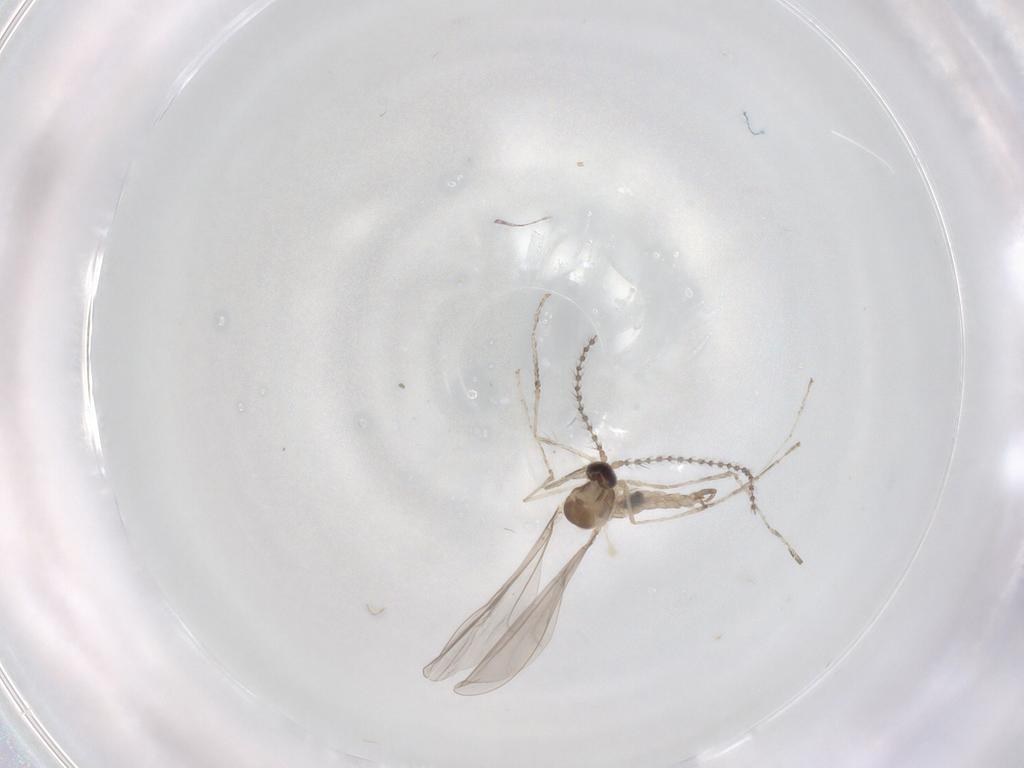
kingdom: Animalia
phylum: Arthropoda
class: Insecta
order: Diptera
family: Cecidomyiidae
